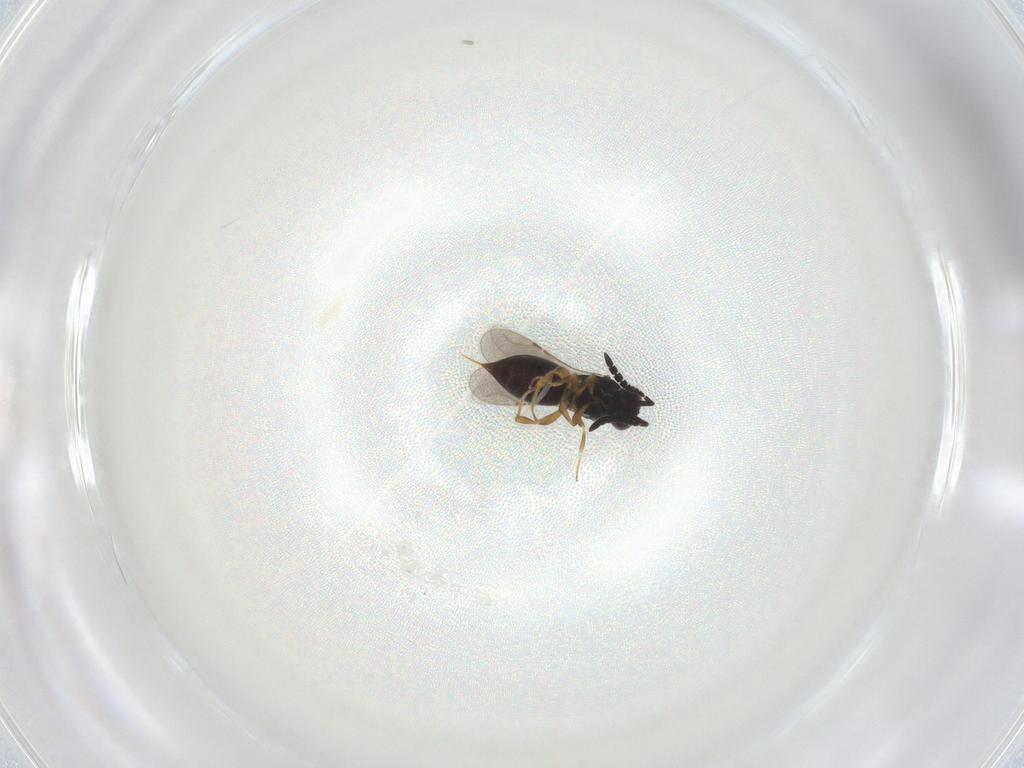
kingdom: Animalia
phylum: Arthropoda
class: Insecta
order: Hymenoptera
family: Ceraphronidae
